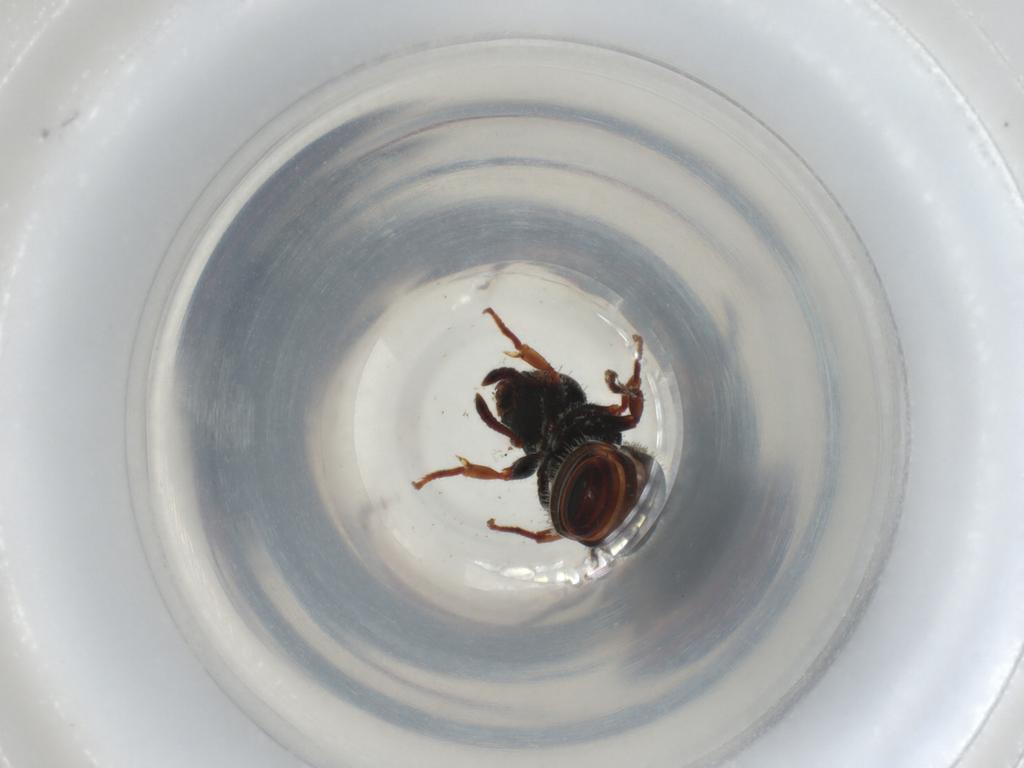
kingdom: Animalia
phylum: Arthropoda
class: Insecta
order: Hymenoptera
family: Formicidae
